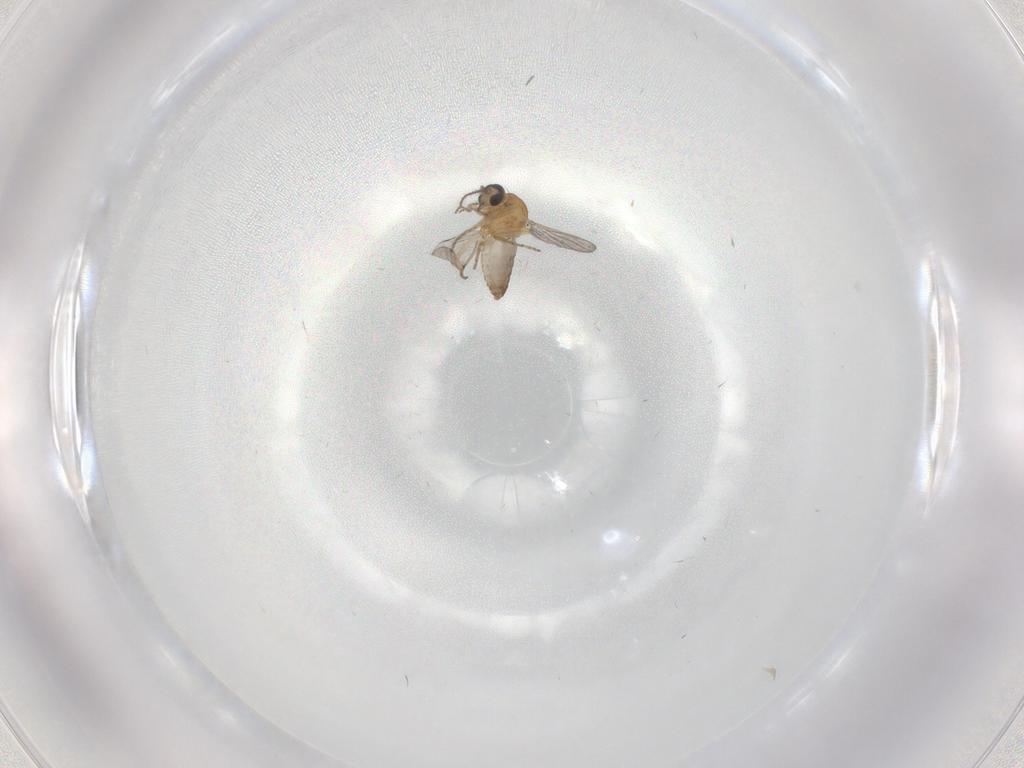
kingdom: Animalia
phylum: Arthropoda
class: Insecta
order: Diptera
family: Ceratopogonidae
